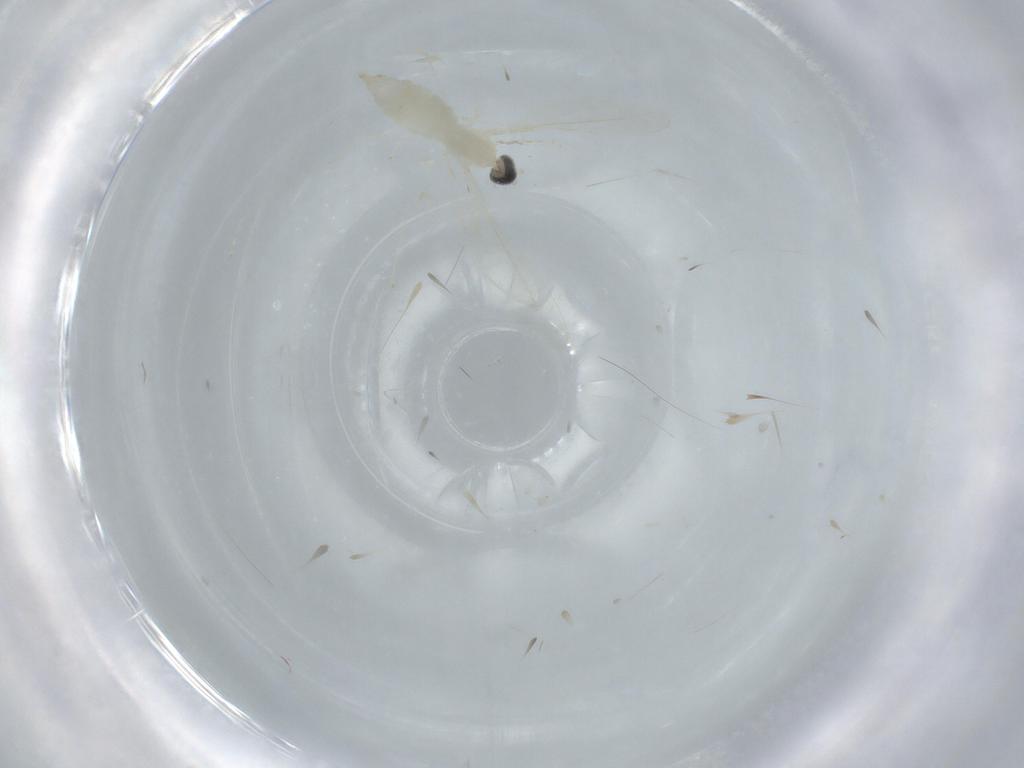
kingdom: Animalia
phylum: Arthropoda
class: Insecta
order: Diptera
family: Cecidomyiidae
